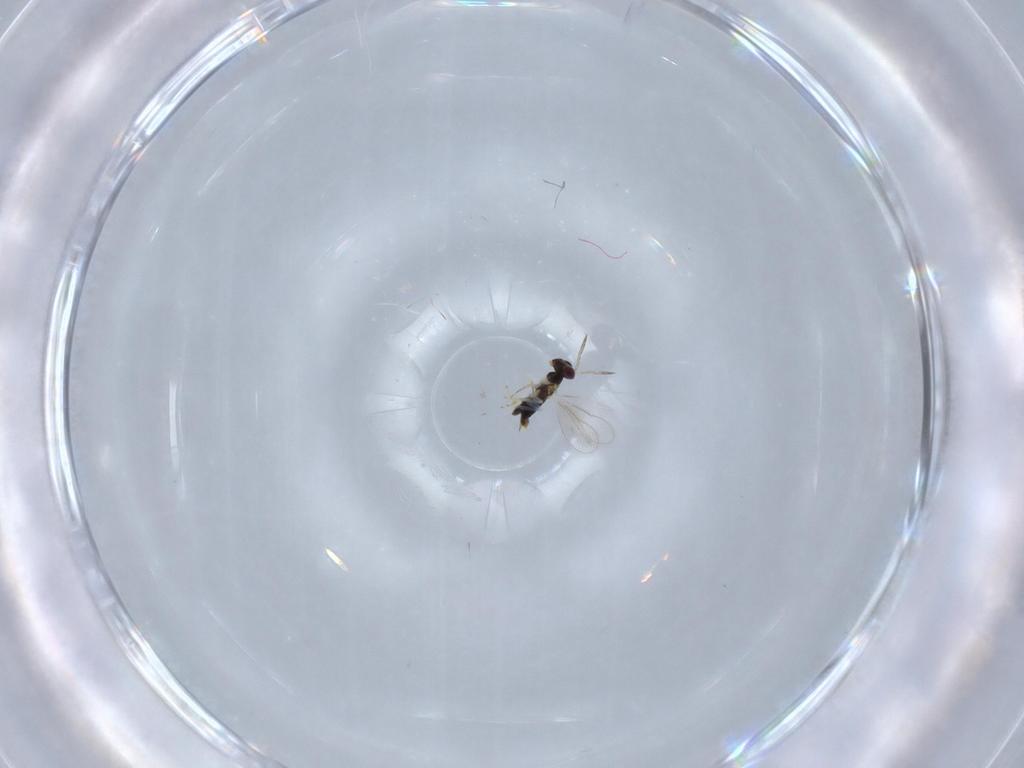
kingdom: Animalia
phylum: Arthropoda
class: Insecta
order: Hymenoptera
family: Aphelinidae
